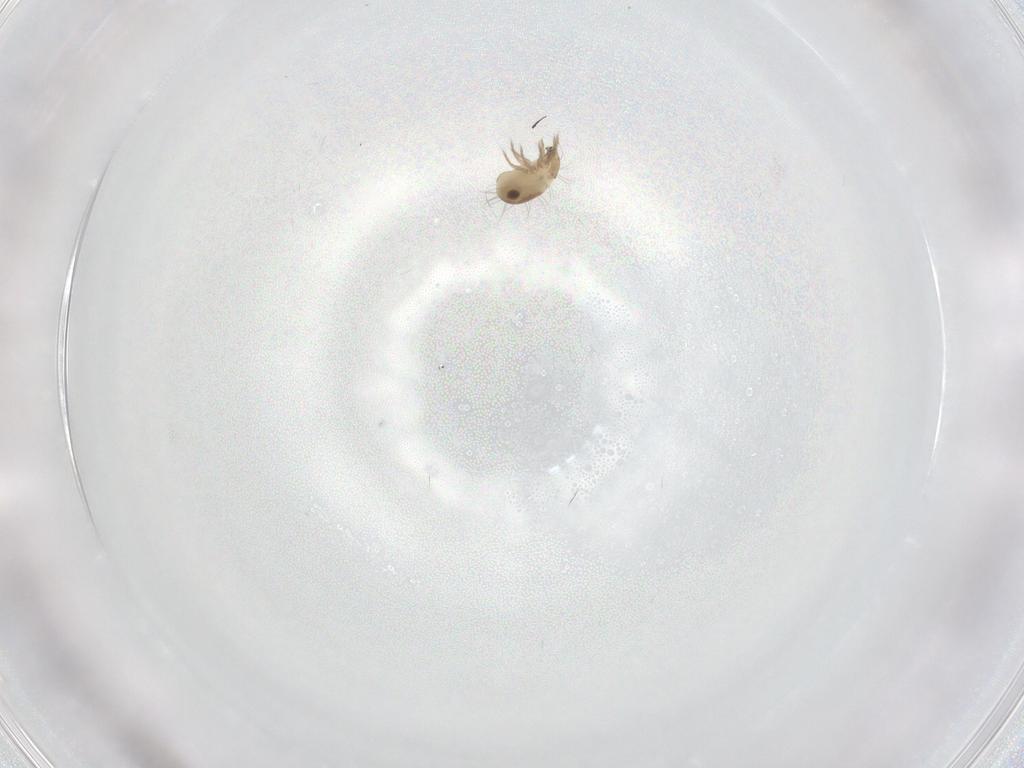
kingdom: Animalia
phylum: Arthropoda
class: Arachnida
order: Sarcoptiformes
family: Ceratozetidae
